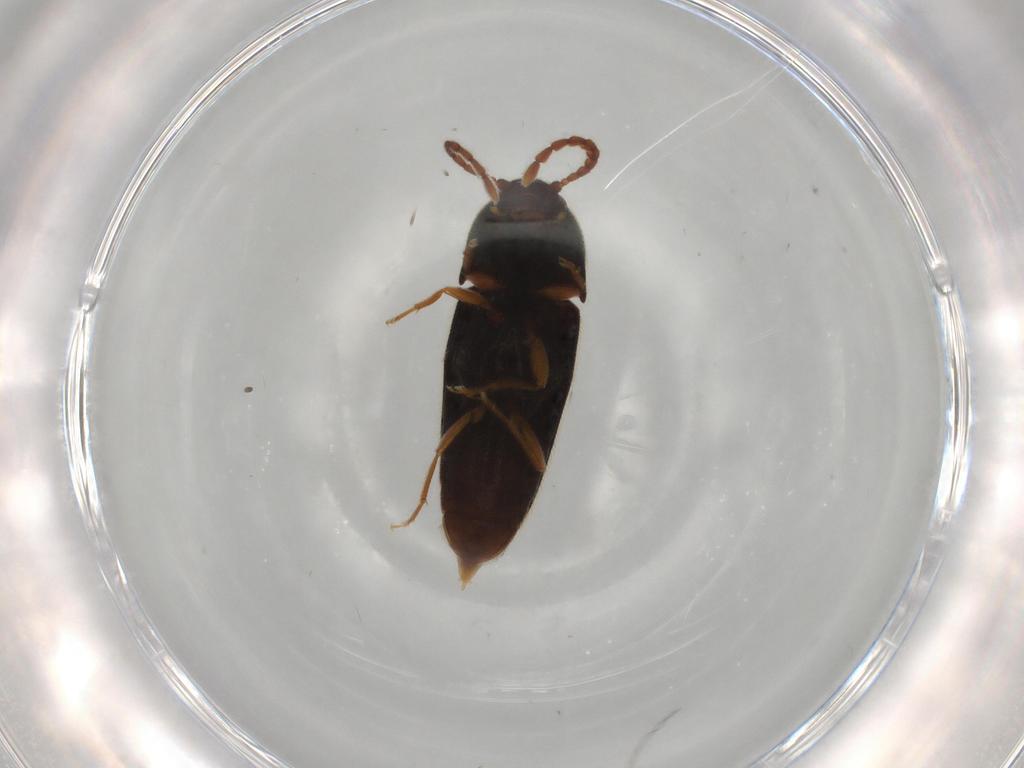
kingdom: Animalia
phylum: Arthropoda
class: Insecta
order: Coleoptera
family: Elateridae
